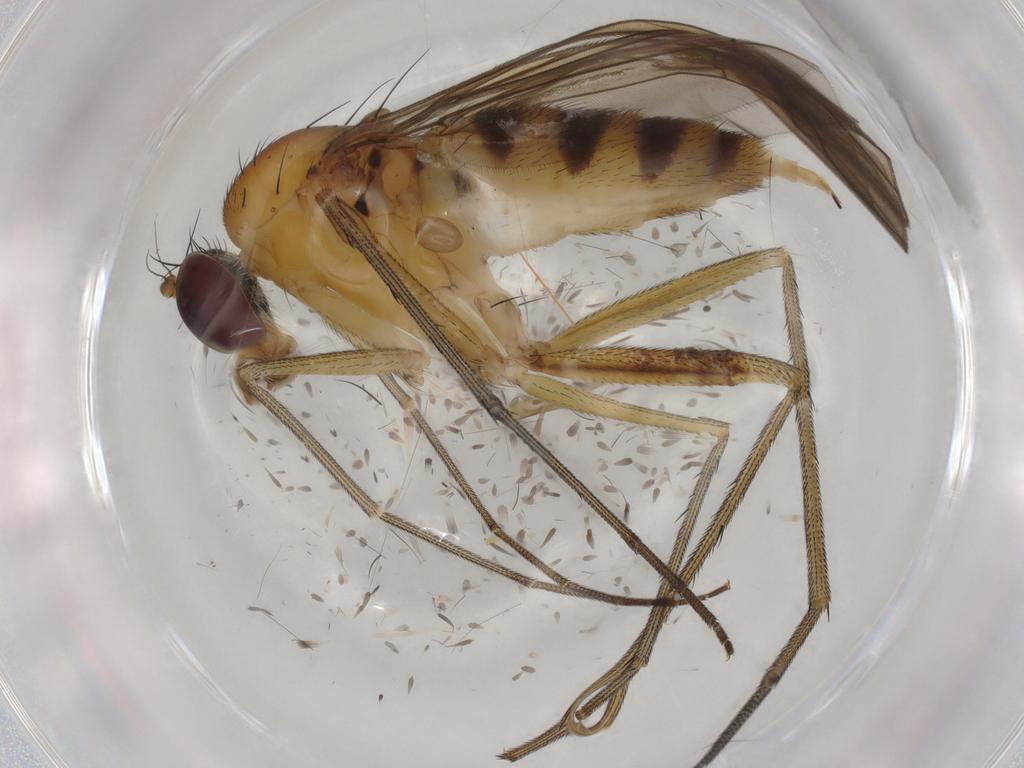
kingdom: Animalia
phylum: Arthropoda
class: Insecta
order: Diptera
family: Dolichopodidae
